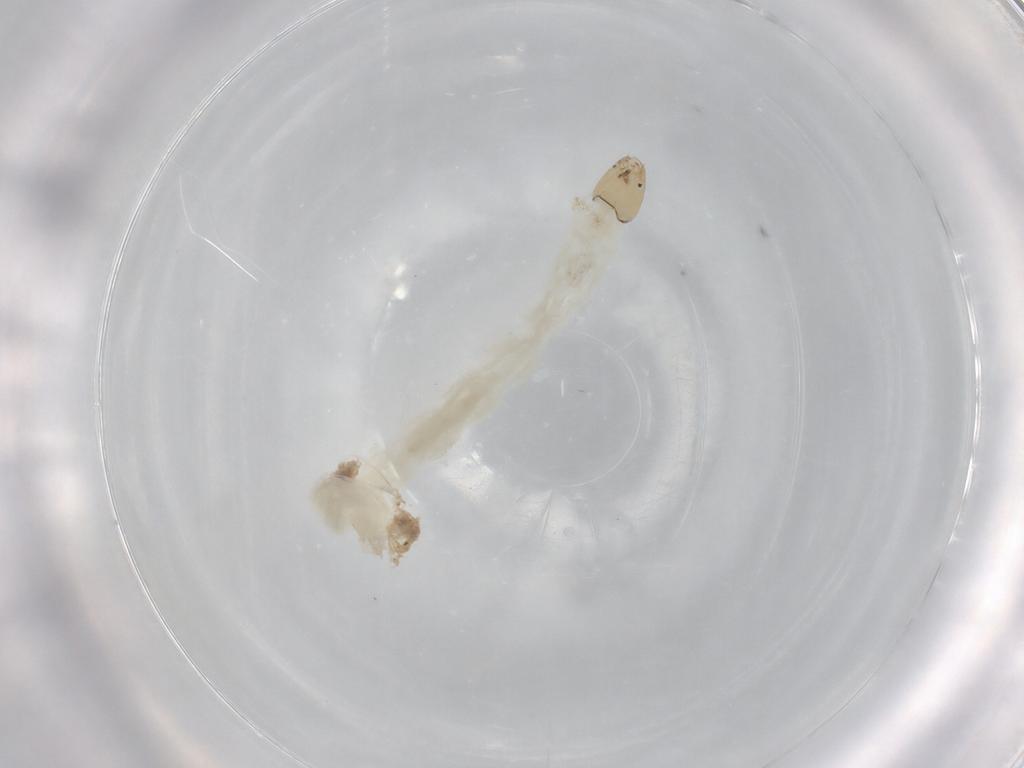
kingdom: Animalia
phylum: Arthropoda
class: Insecta
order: Diptera
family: Chironomidae
